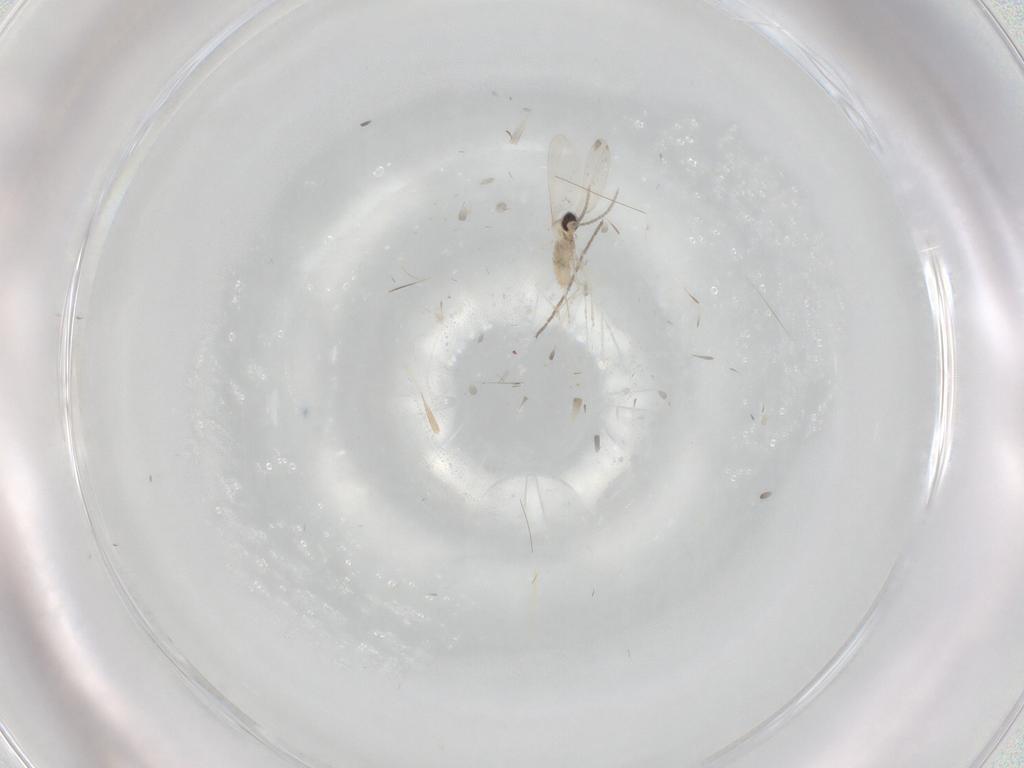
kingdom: Animalia
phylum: Arthropoda
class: Insecta
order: Diptera
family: Cecidomyiidae
